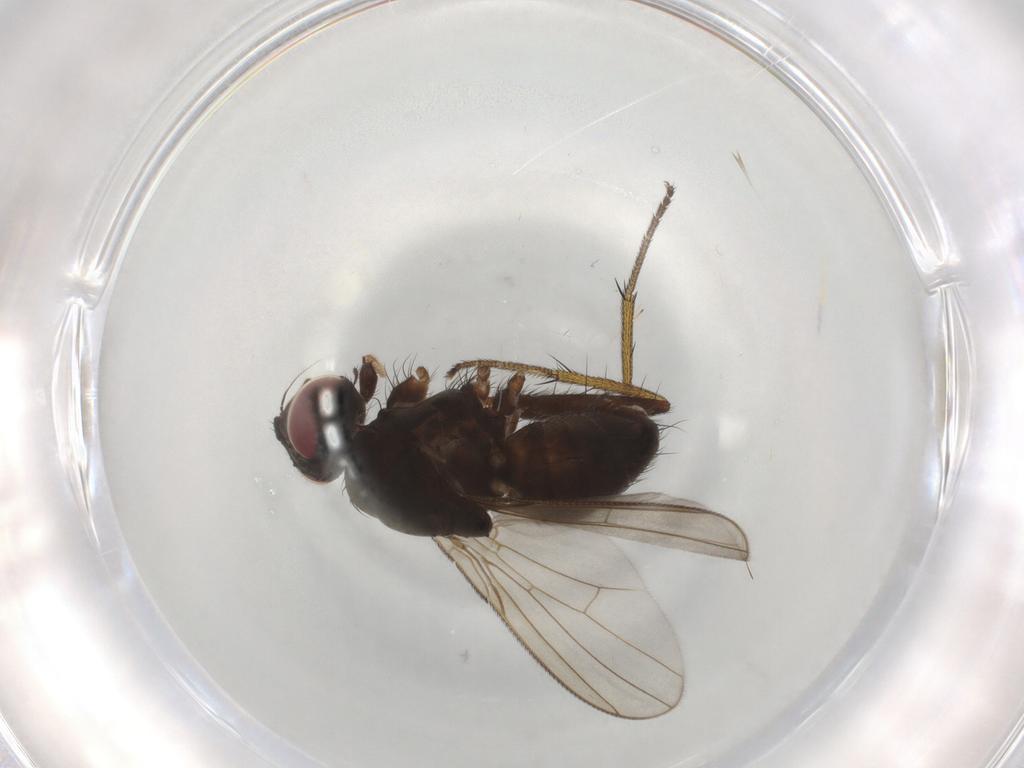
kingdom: Animalia
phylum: Arthropoda
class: Insecta
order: Diptera
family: Muscidae
